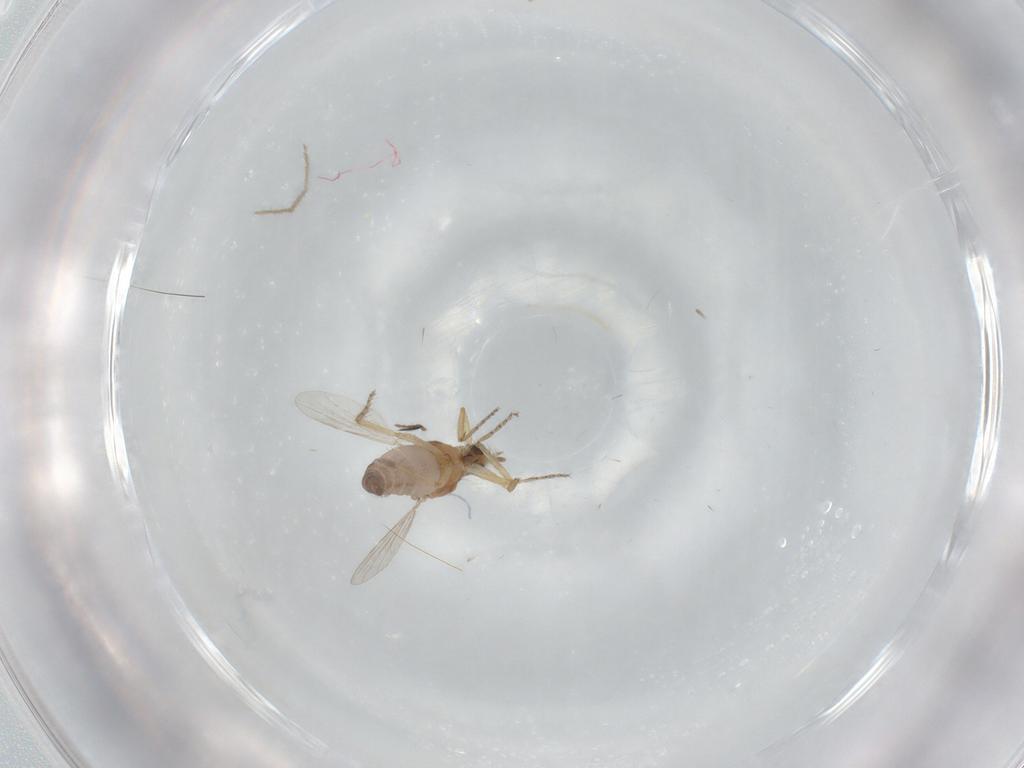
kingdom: Animalia
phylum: Arthropoda
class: Insecta
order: Diptera
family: Ceratopogonidae
